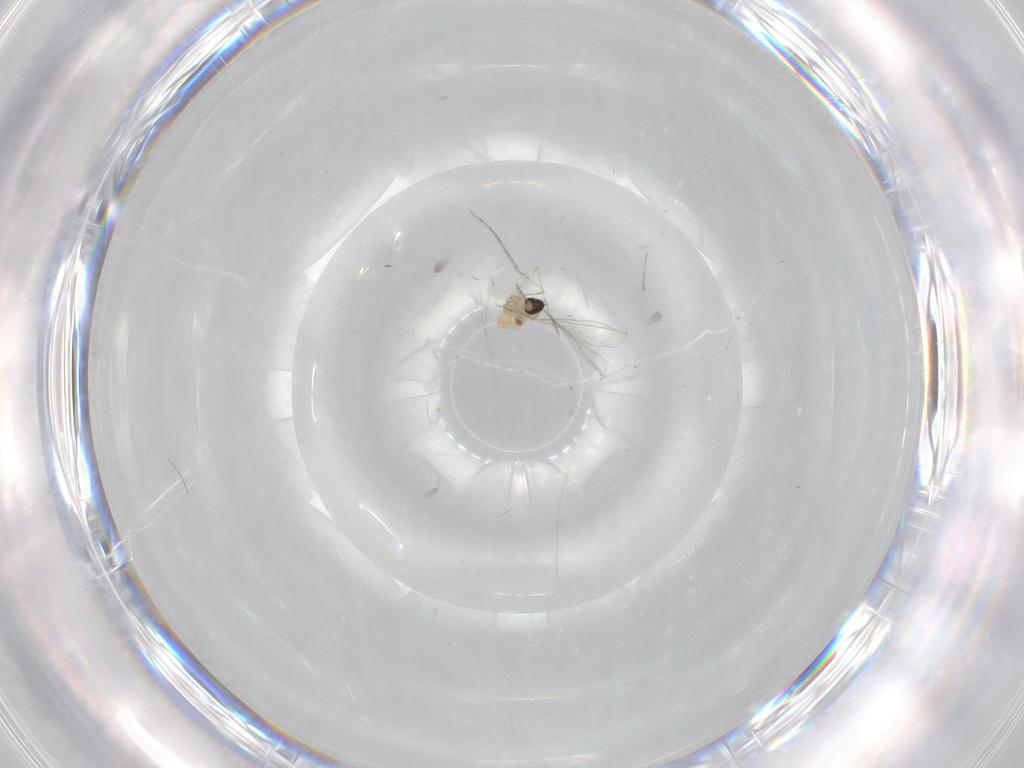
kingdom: Animalia
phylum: Arthropoda
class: Insecta
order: Diptera
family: Cecidomyiidae
